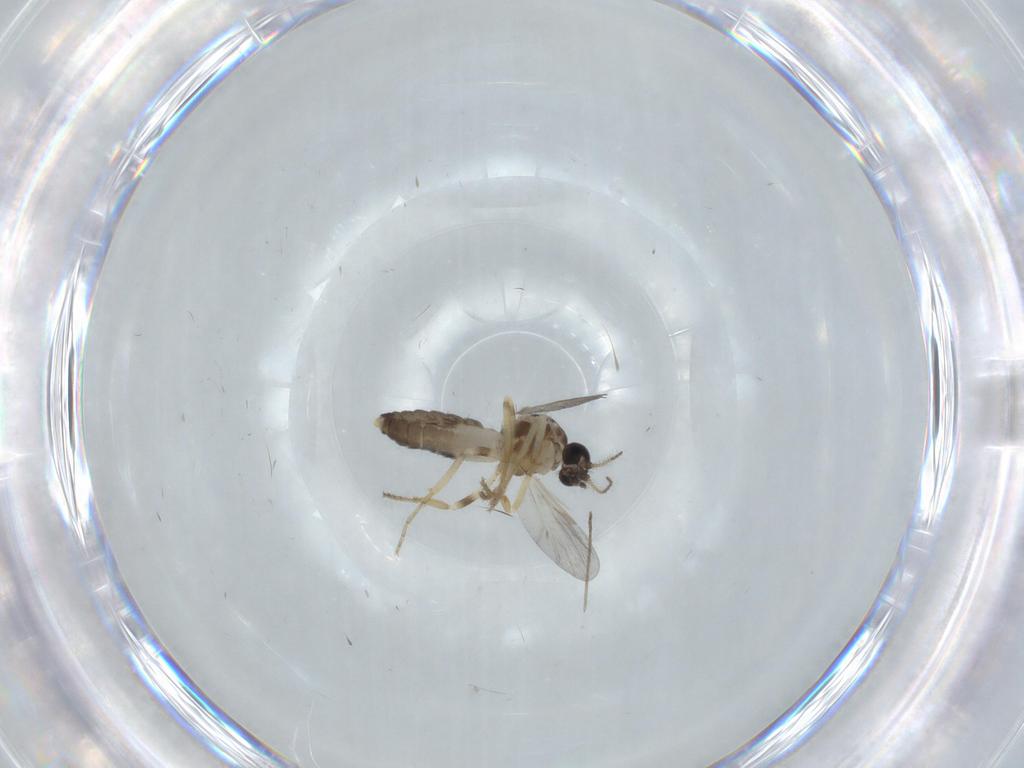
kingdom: Animalia
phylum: Arthropoda
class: Insecta
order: Diptera
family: Ceratopogonidae
